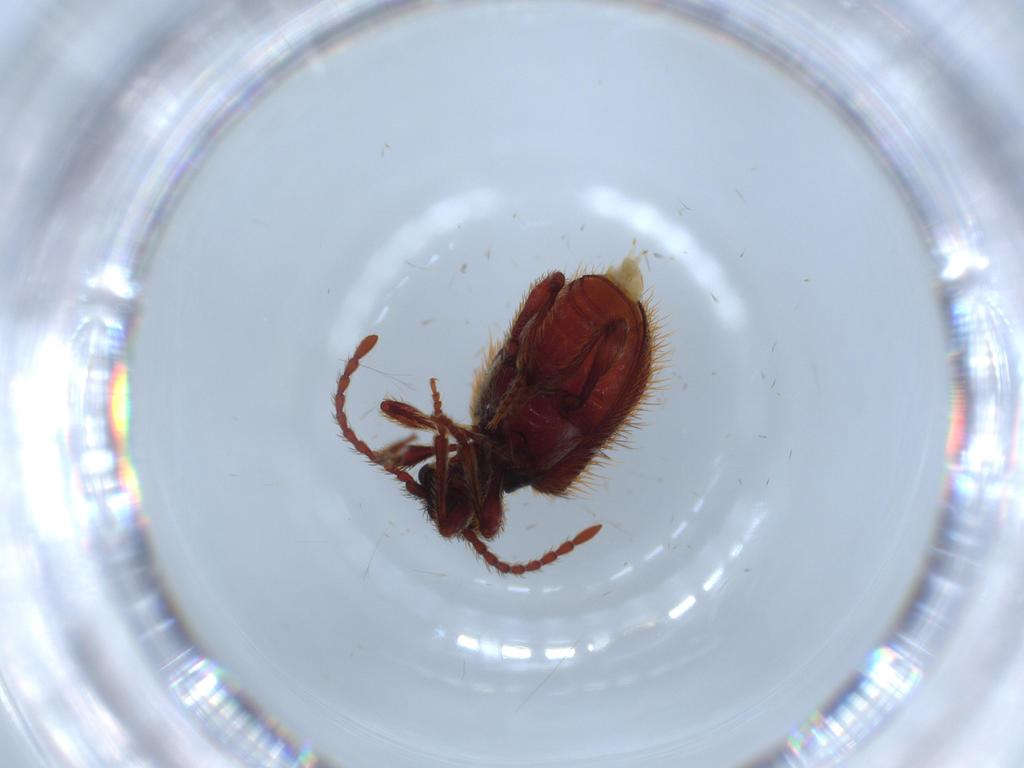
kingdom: Animalia
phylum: Arthropoda
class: Insecta
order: Coleoptera
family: Ptinidae
